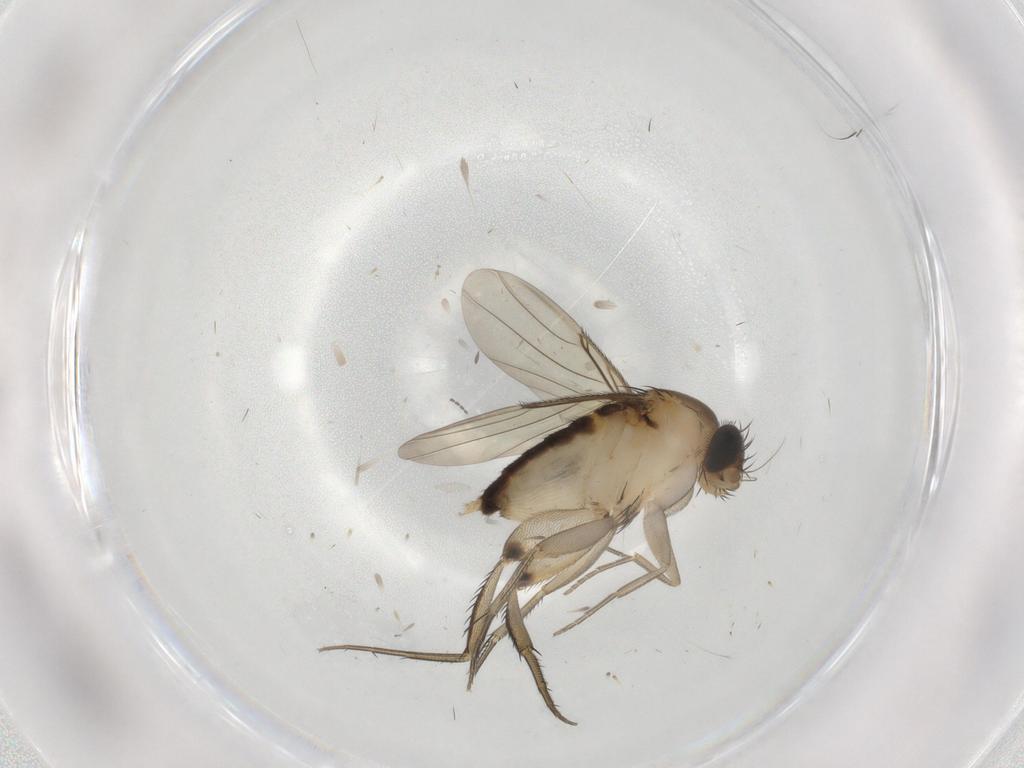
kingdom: Animalia
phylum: Arthropoda
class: Insecta
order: Diptera
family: Phoridae
